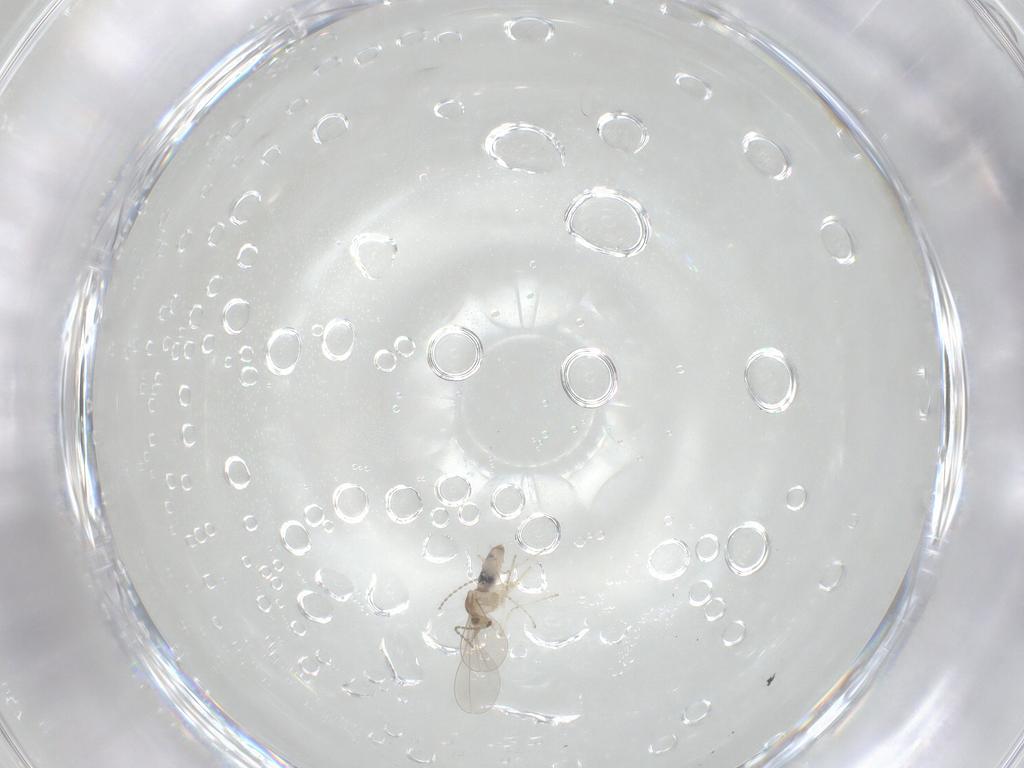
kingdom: Animalia
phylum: Arthropoda
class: Insecta
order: Diptera
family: Cecidomyiidae
